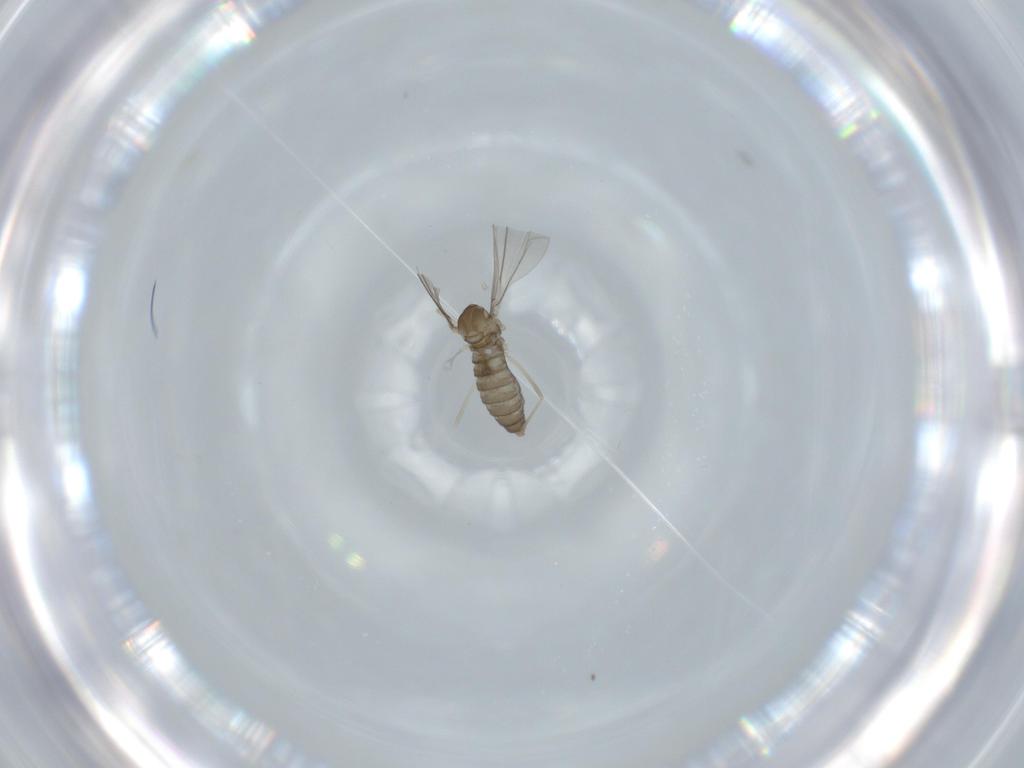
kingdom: Animalia
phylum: Arthropoda
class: Insecta
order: Diptera
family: Cecidomyiidae
